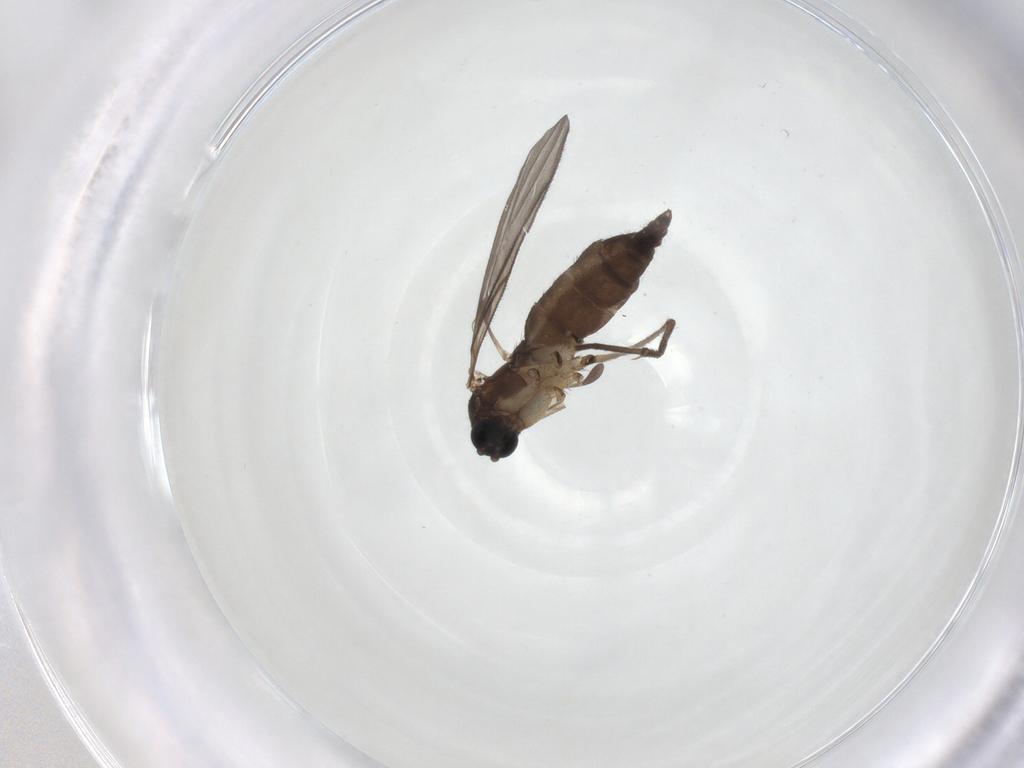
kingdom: Animalia
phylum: Arthropoda
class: Insecta
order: Diptera
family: Sciaridae
